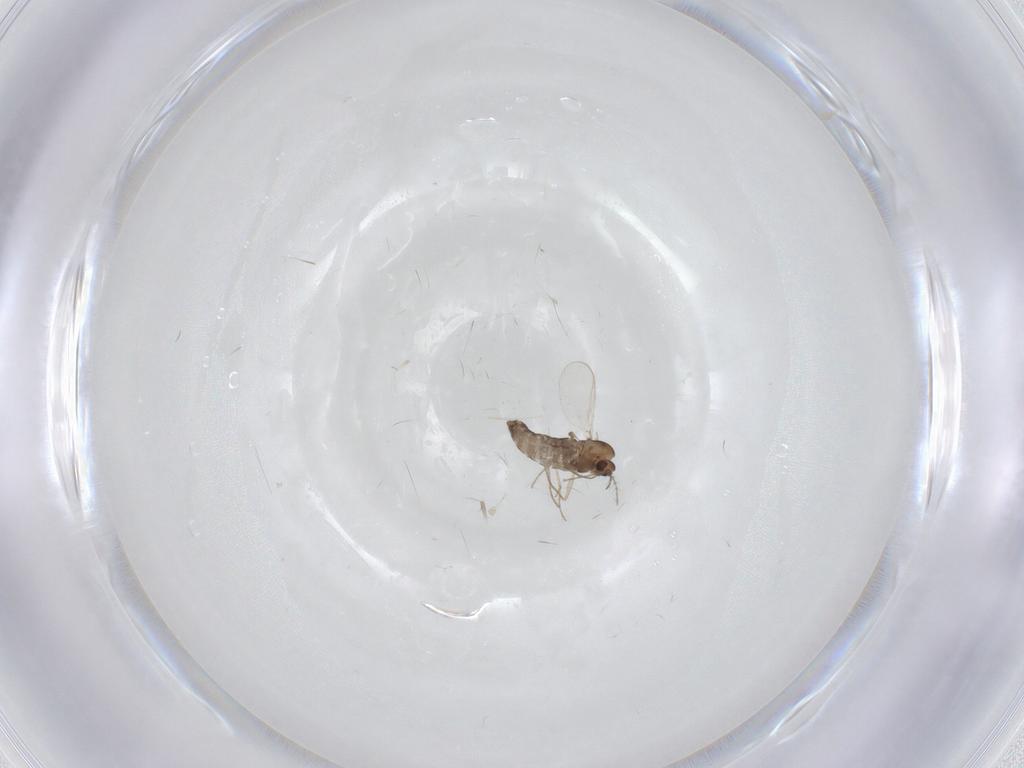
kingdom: Animalia
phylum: Arthropoda
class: Insecta
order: Diptera
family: Chironomidae
